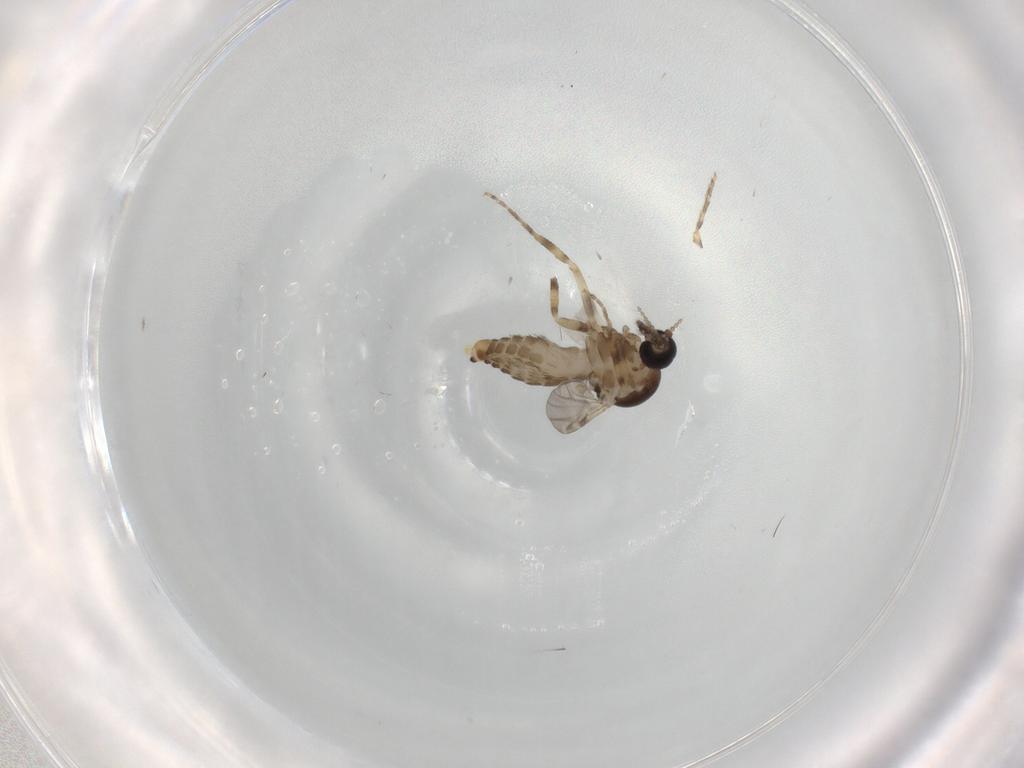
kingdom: Animalia
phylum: Arthropoda
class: Insecta
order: Diptera
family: Ceratopogonidae
